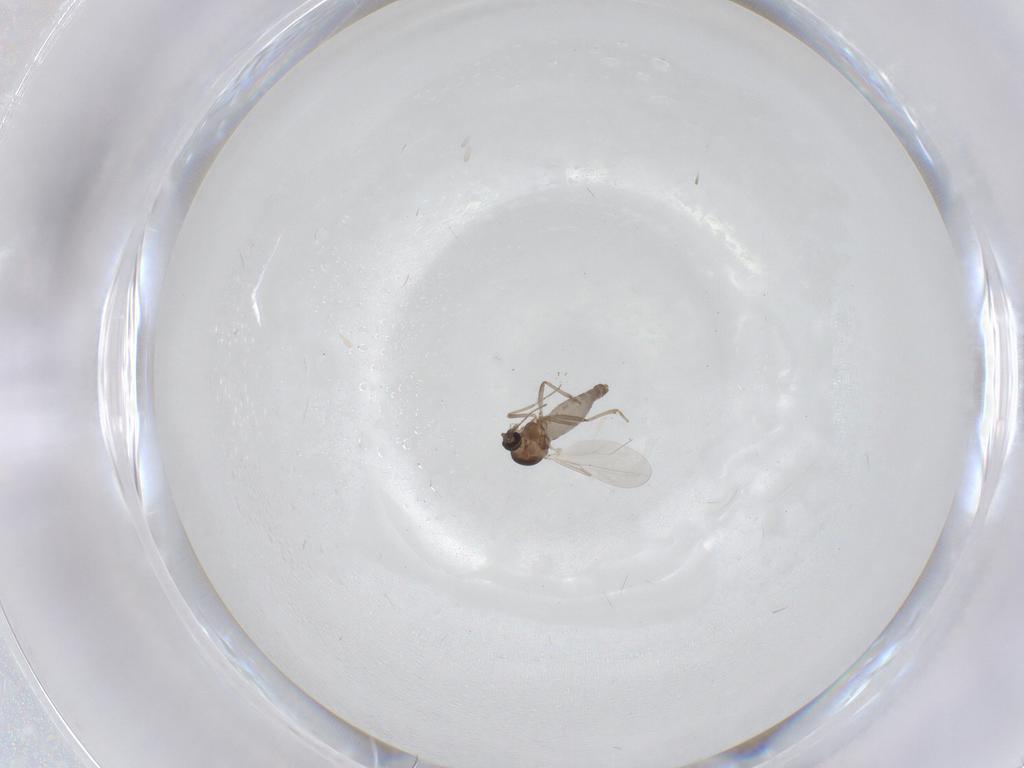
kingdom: Animalia
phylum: Arthropoda
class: Insecta
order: Diptera
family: Ceratopogonidae
